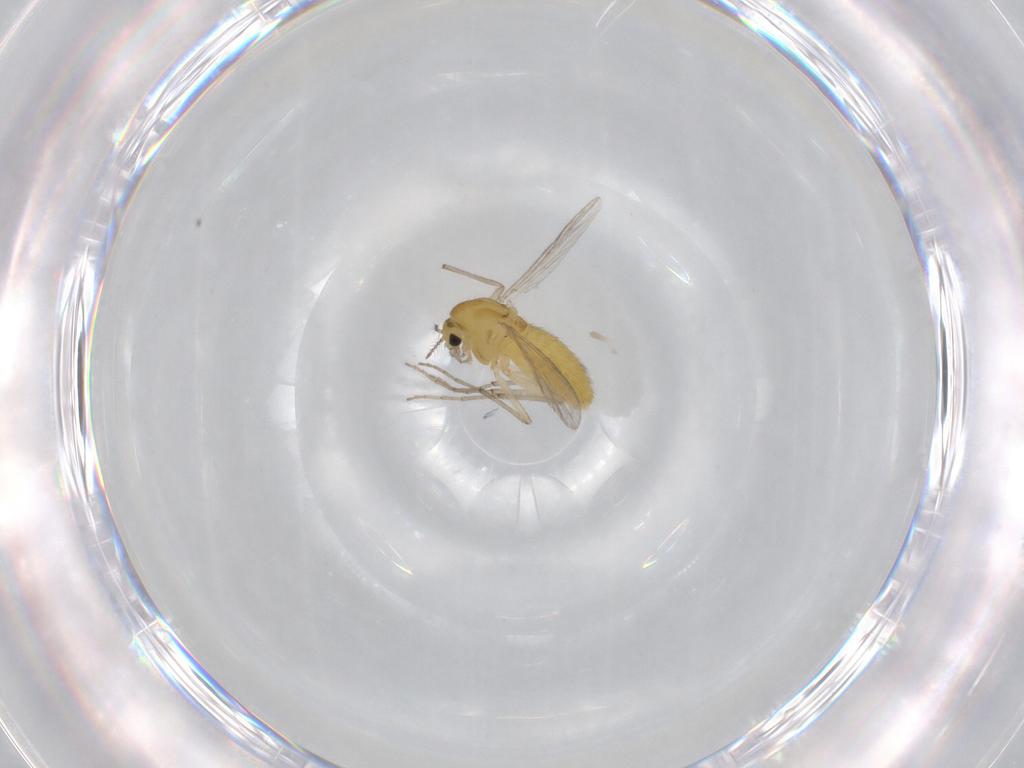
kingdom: Animalia
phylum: Arthropoda
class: Insecta
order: Diptera
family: Chironomidae
